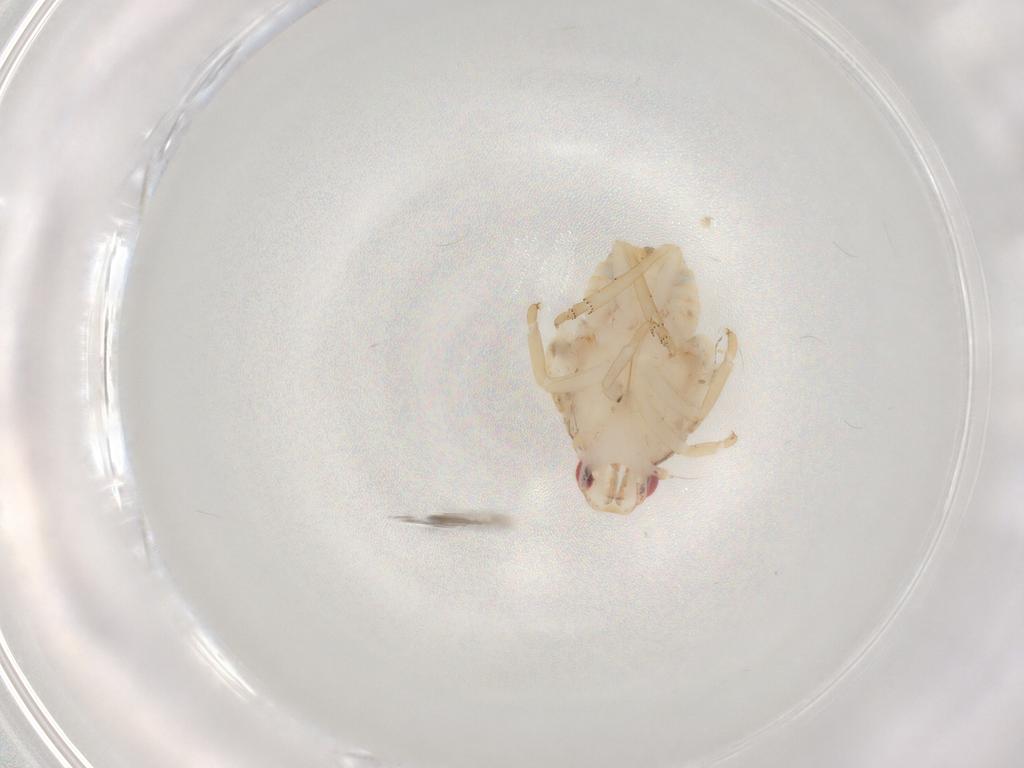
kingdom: Animalia
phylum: Arthropoda
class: Insecta
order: Hemiptera
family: Flatidae
